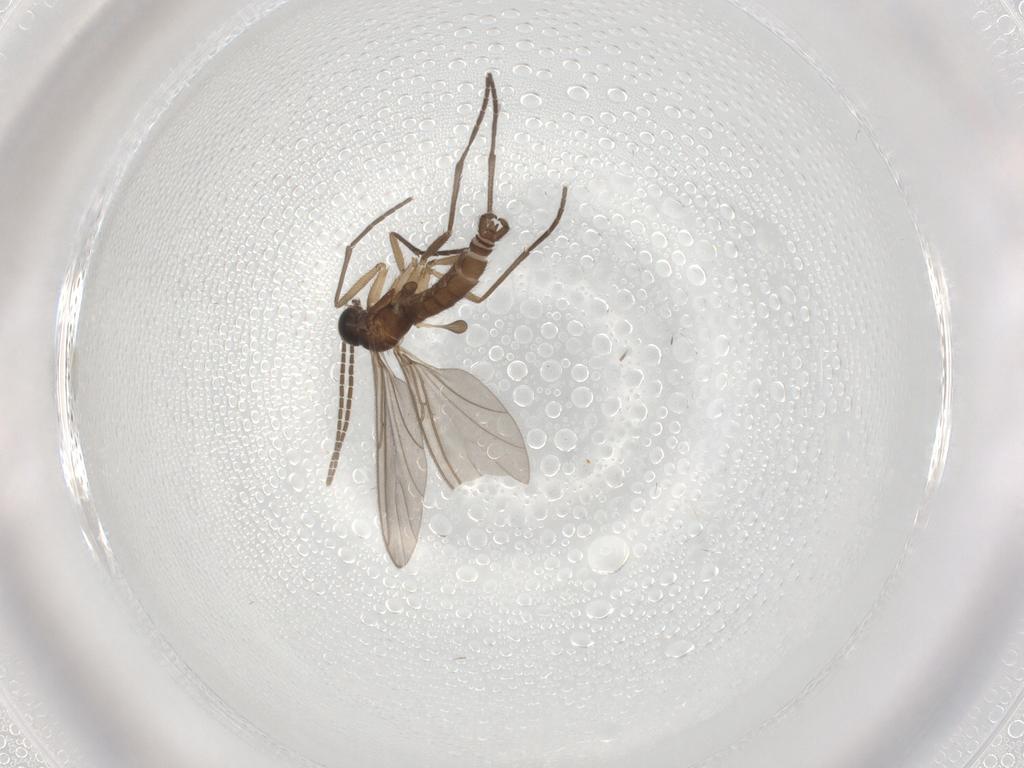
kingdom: Animalia
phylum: Arthropoda
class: Insecta
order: Diptera
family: Sciaridae
